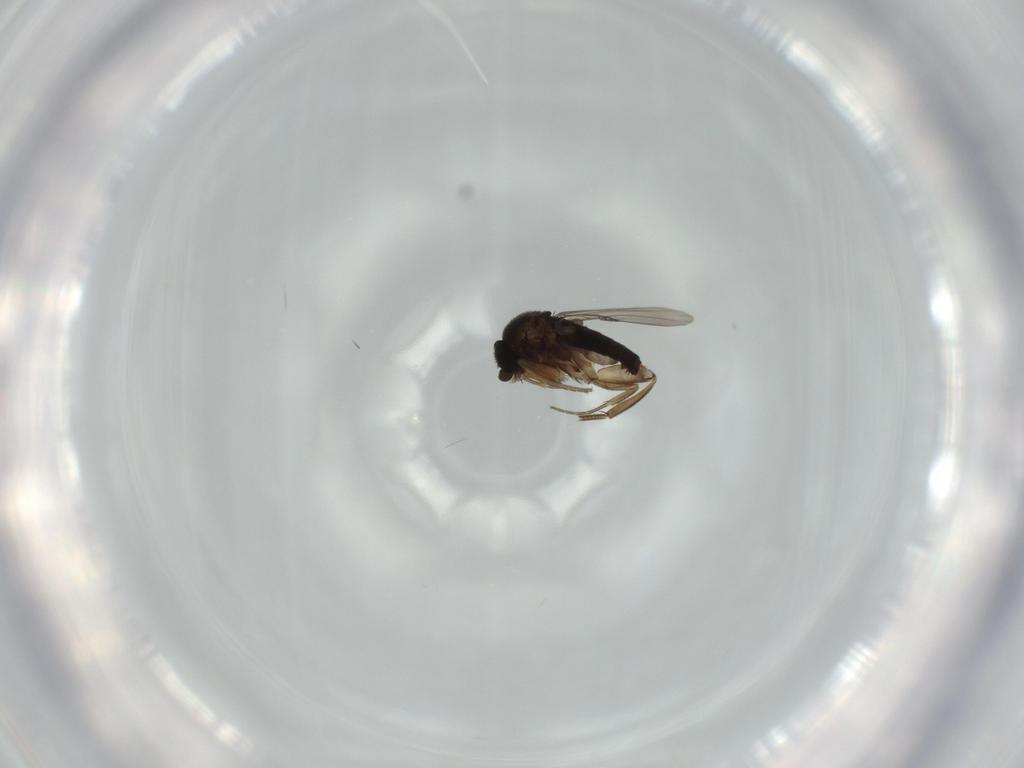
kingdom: Animalia
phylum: Arthropoda
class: Insecta
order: Diptera
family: Phoridae
